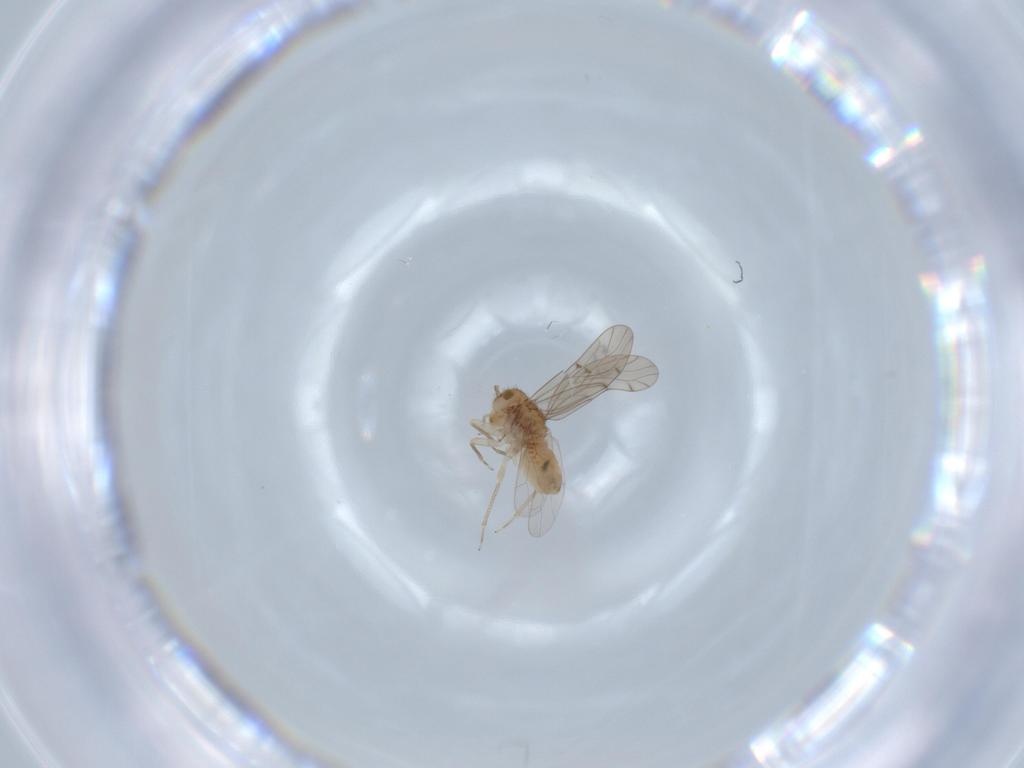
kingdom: Animalia
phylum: Arthropoda
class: Insecta
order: Psocodea
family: Ectopsocidae
